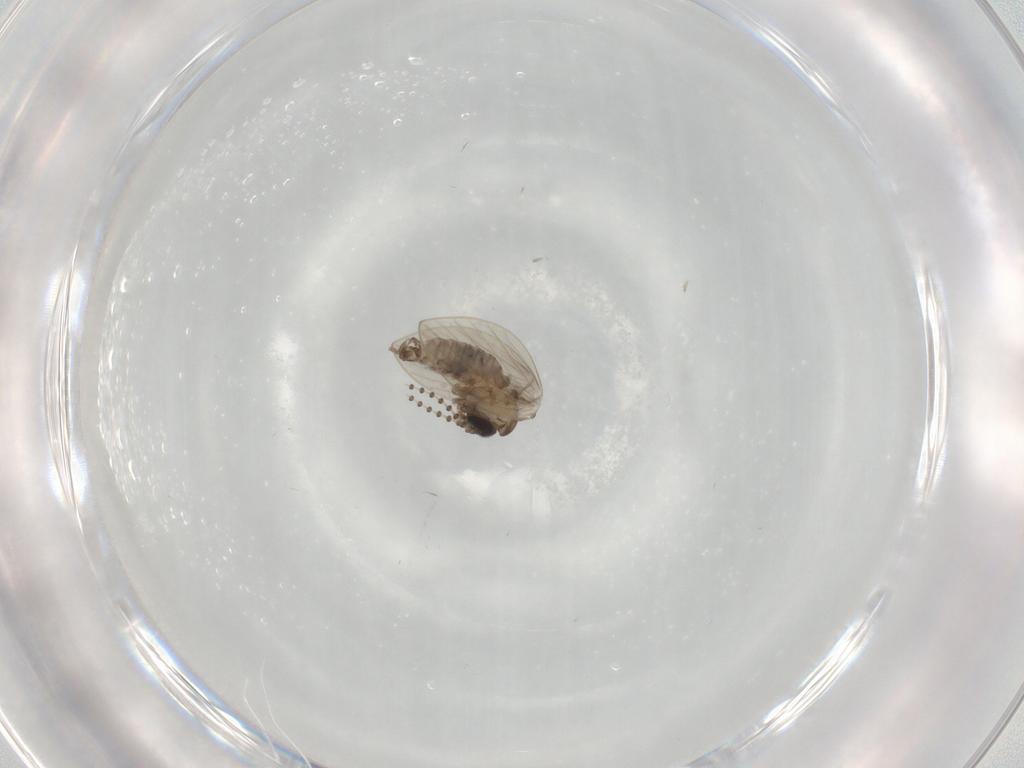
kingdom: Animalia
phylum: Arthropoda
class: Insecta
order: Diptera
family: Psychodidae
